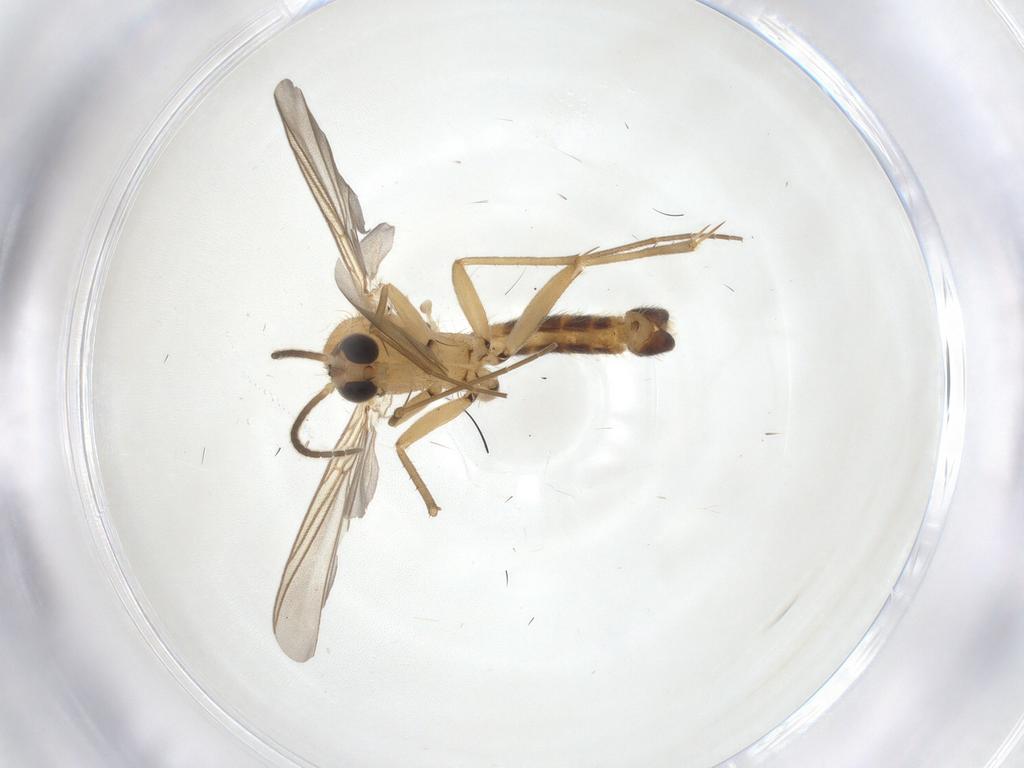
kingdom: Animalia
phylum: Arthropoda
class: Insecta
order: Diptera
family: Mycetophilidae
